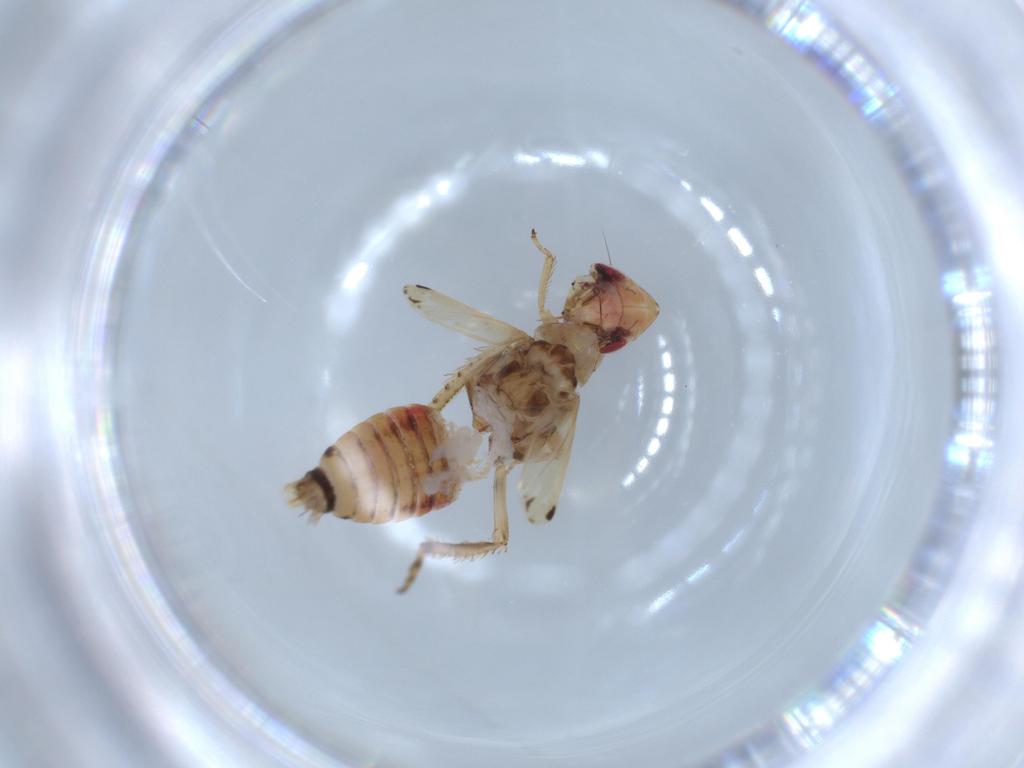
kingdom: Animalia
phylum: Arthropoda
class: Insecta
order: Hemiptera
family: Cicadellidae
